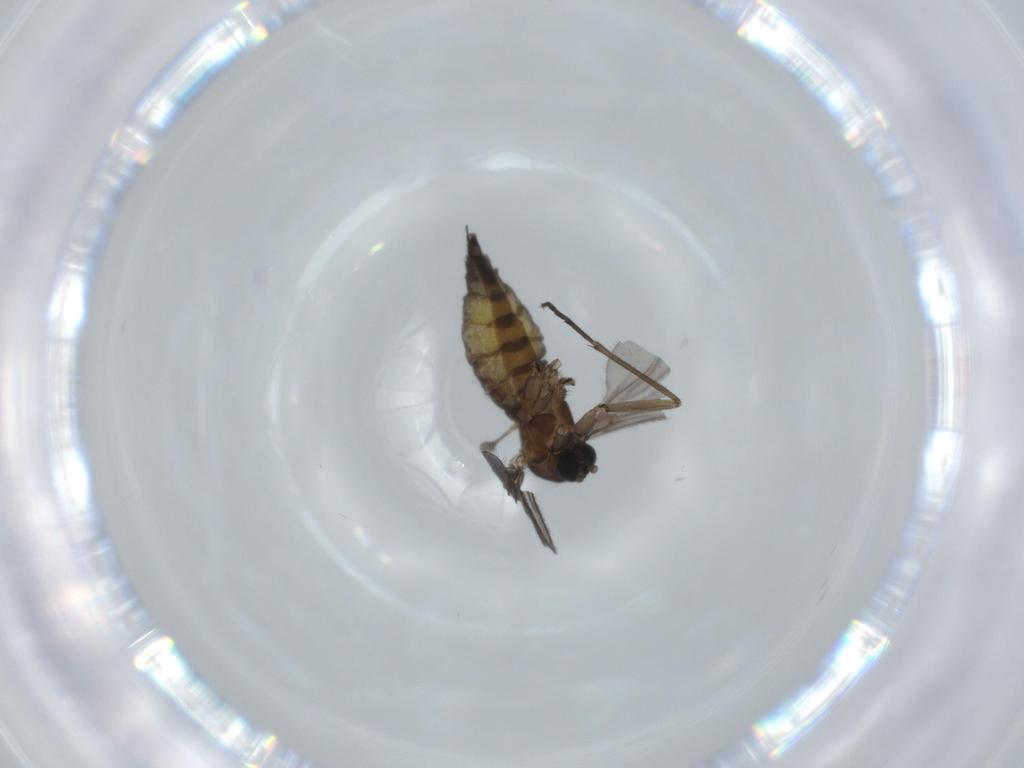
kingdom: Animalia
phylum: Arthropoda
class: Insecta
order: Diptera
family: Sciaridae
